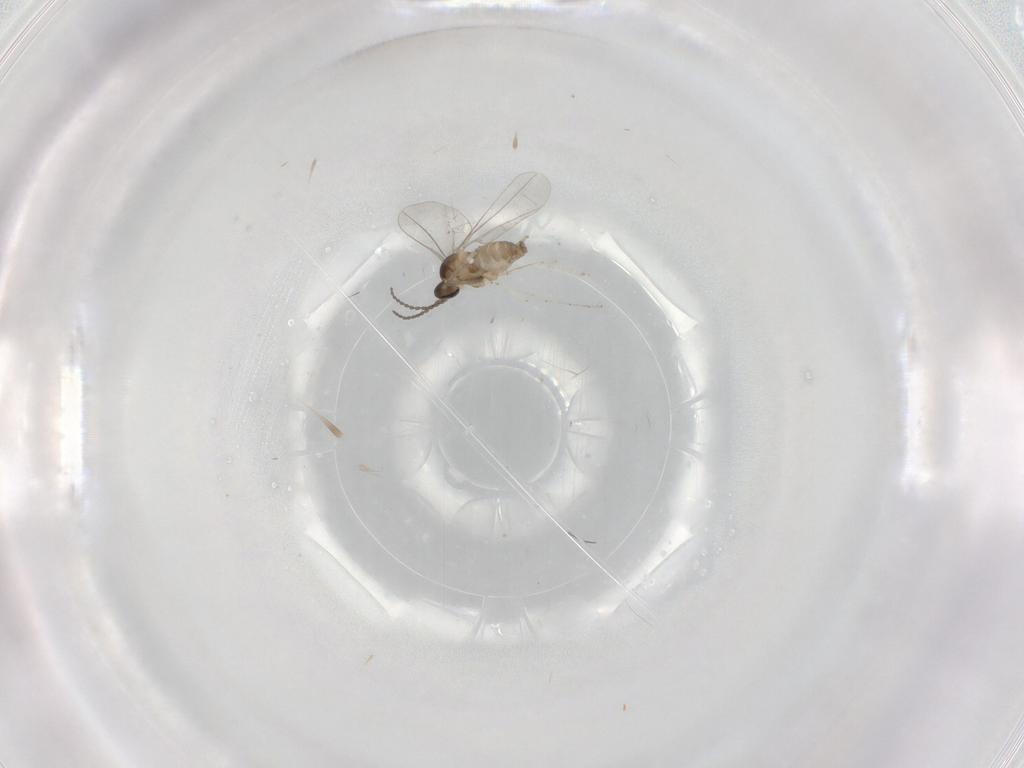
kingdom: Animalia
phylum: Arthropoda
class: Insecta
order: Diptera
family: Cecidomyiidae
